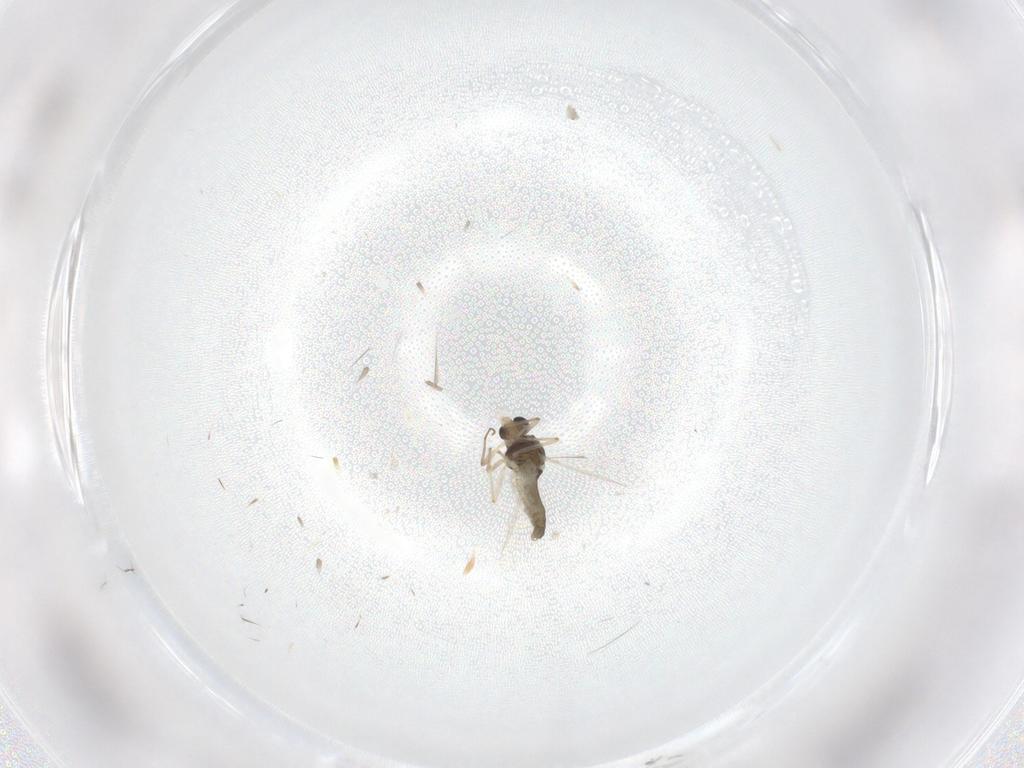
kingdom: Animalia
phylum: Arthropoda
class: Insecta
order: Diptera
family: Chironomidae
